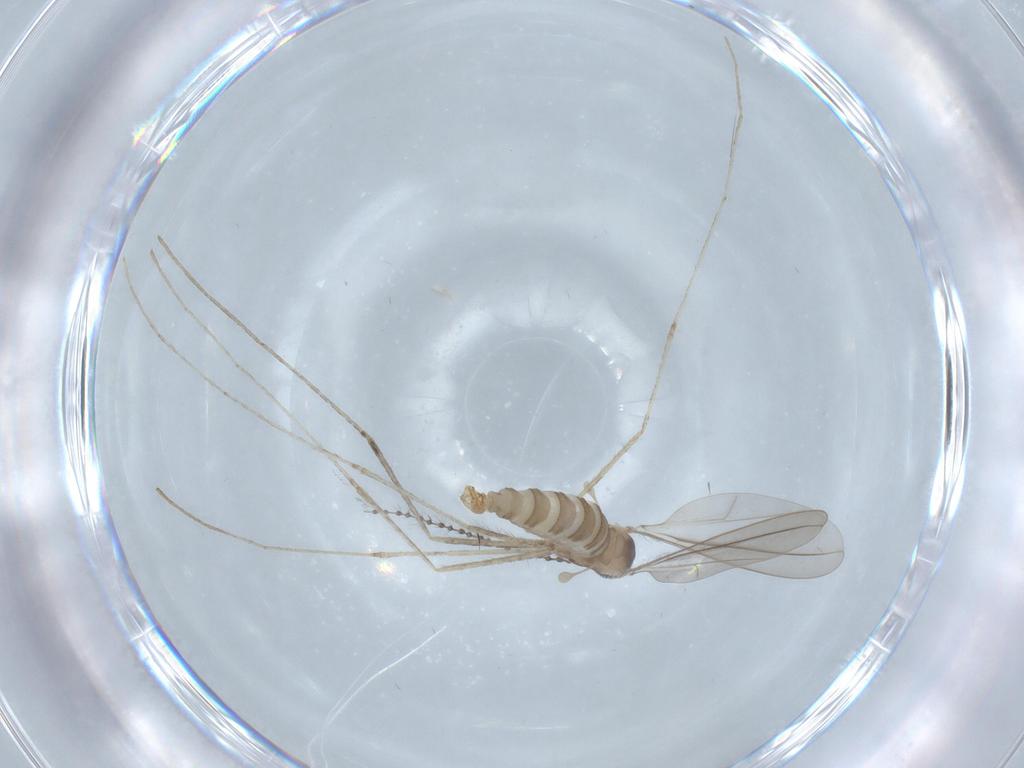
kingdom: Animalia
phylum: Arthropoda
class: Insecta
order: Diptera
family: Cecidomyiidae
